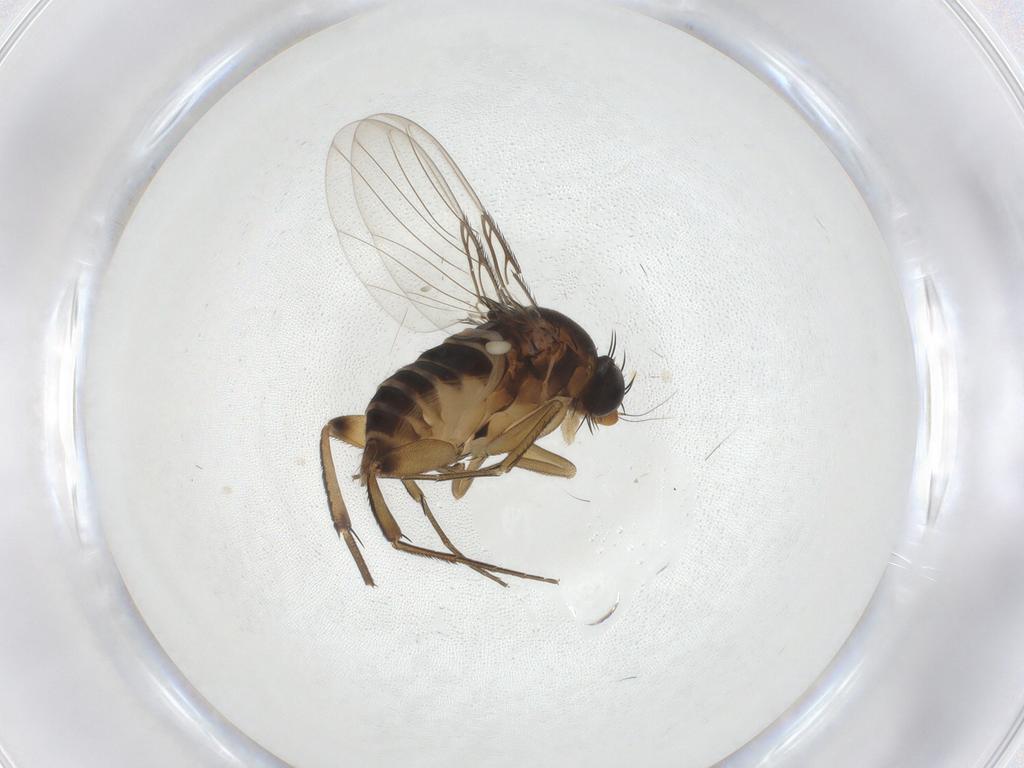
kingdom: Animalia
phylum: Arthropoda
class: Insecta
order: Diptera
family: Phoridae
